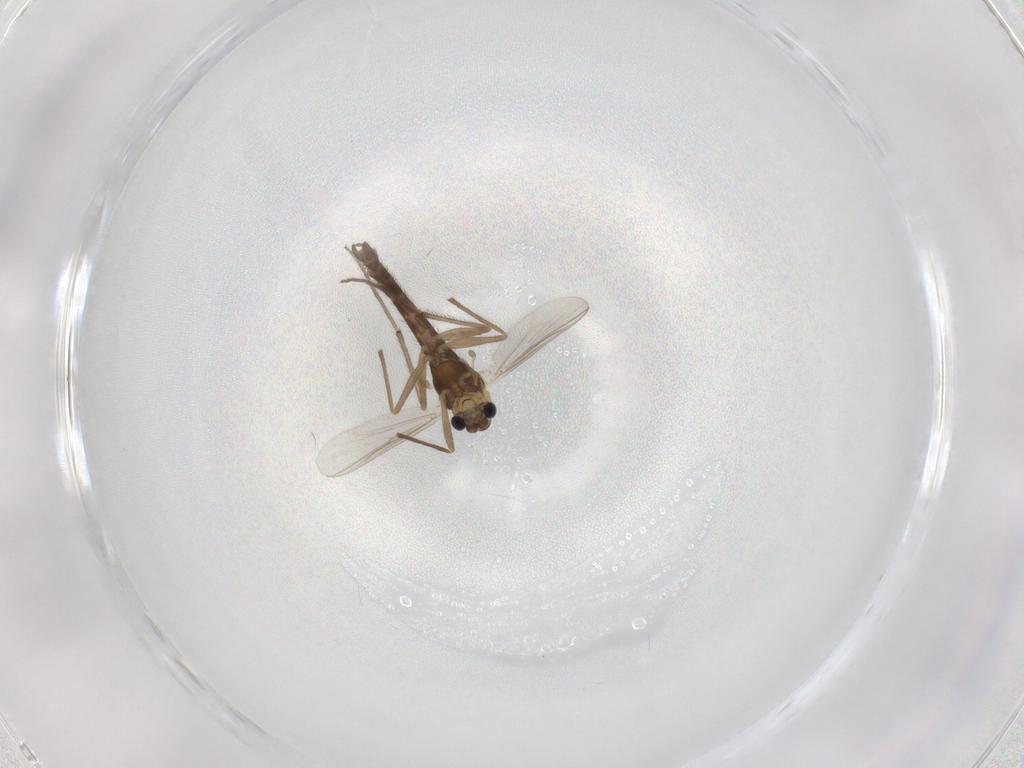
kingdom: Animalia
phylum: Arthropoda
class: Insecta
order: Diptera
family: Chironomidae
